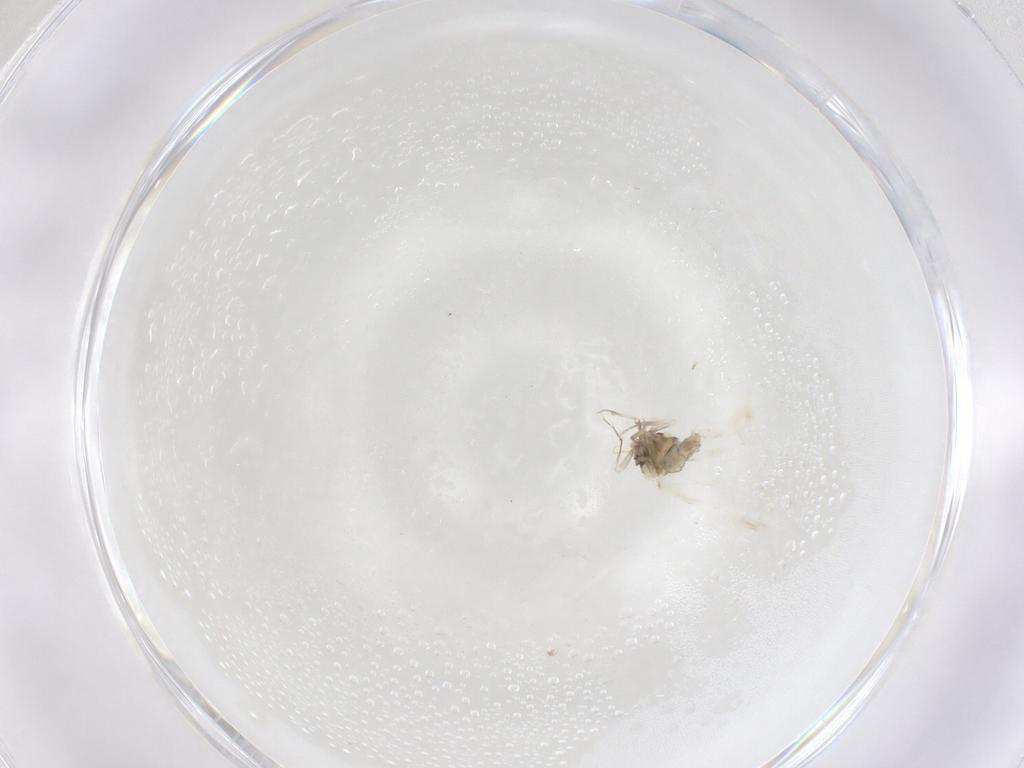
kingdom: Animalia
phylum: Arthropoda
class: Insecta
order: Hemiptera
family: Aleyrodidae
